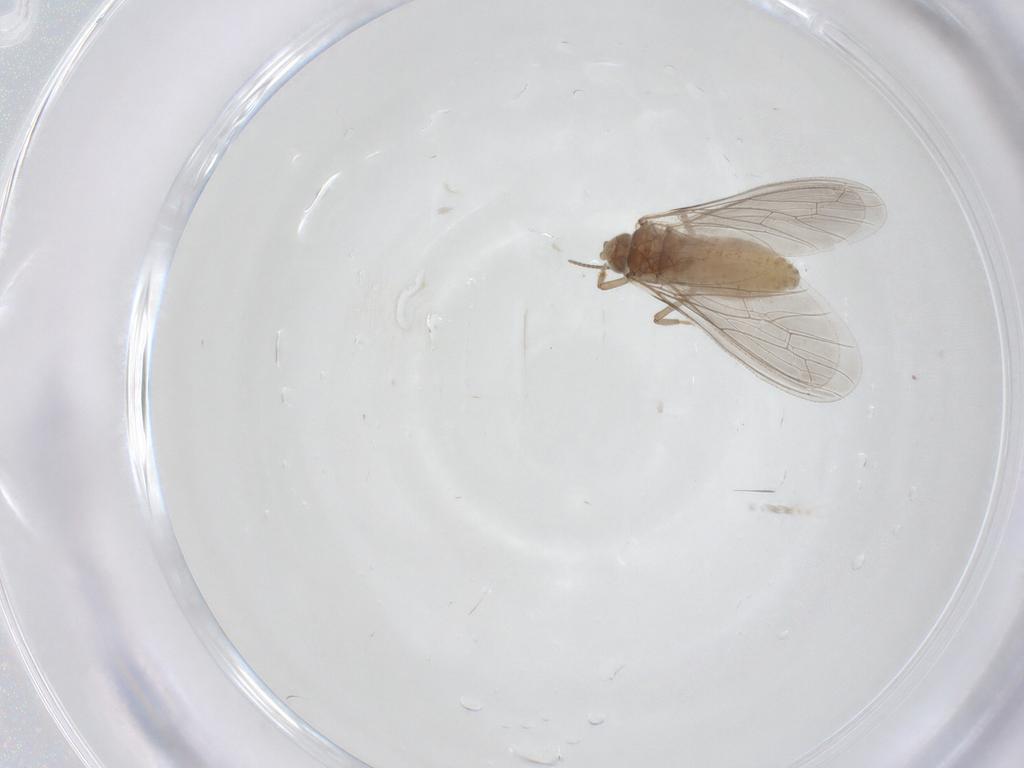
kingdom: Animalia
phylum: Arthropoda
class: Insecta
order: Neuroptera
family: Coniopterygidae
